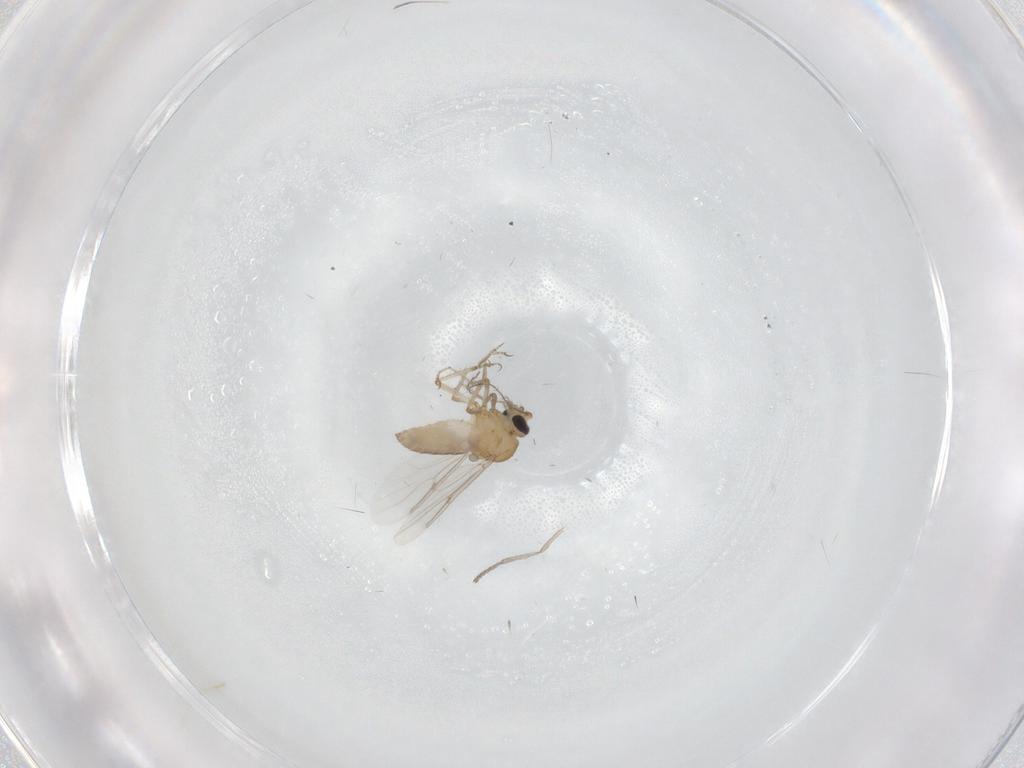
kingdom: Animalia
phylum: Arthropoda
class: Insecta
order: Diptera
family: Psychodidae
